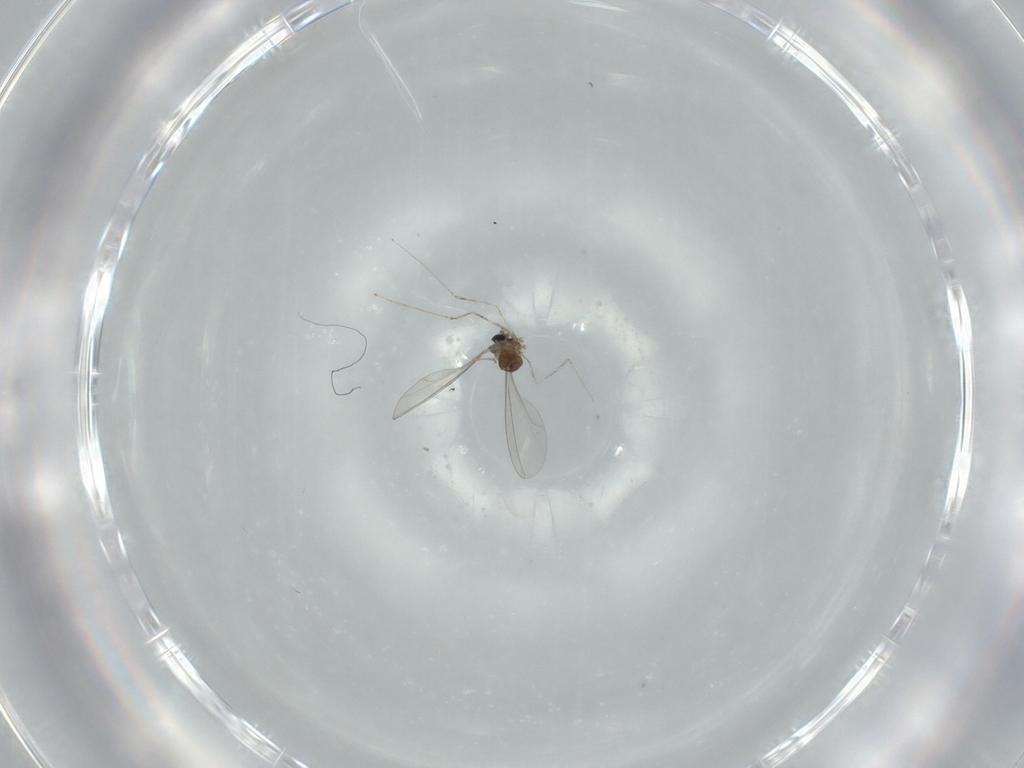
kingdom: Animalia
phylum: Arthropoda
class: Insecta
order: Diptera
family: Cecidomyiidae
